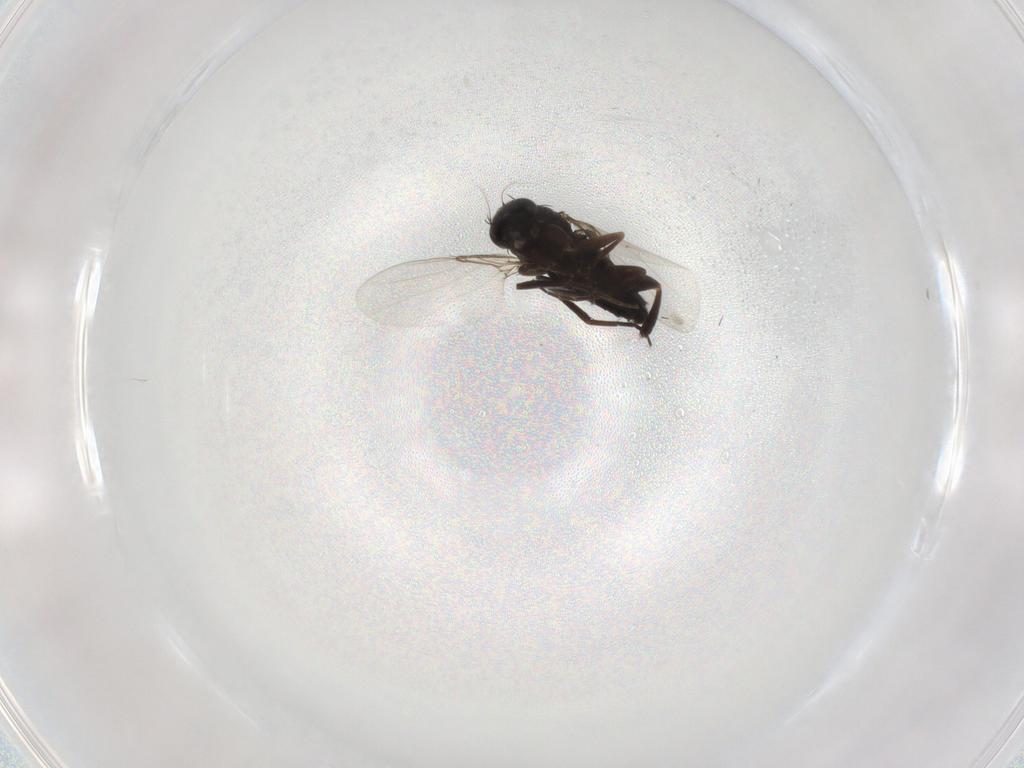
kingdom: Animalia
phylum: Arthropoda
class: Insecta
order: Diptera
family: Phoridae
